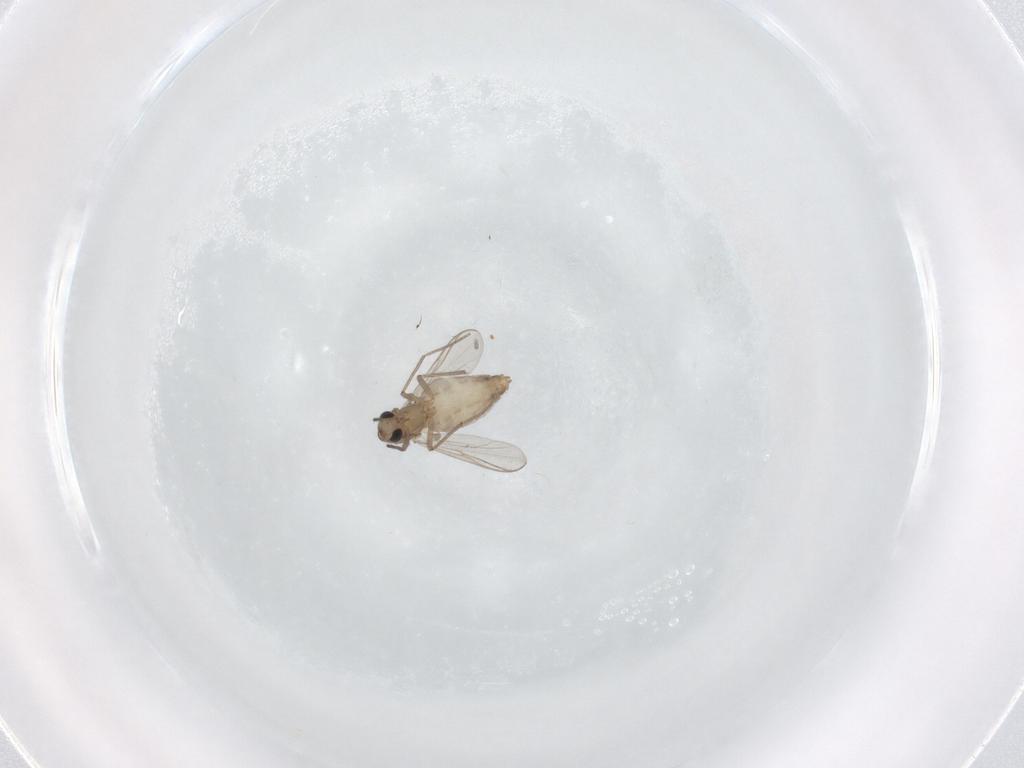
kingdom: Animalia
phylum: Arthropoda
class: Insecta
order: Diptera
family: Chironomidae
